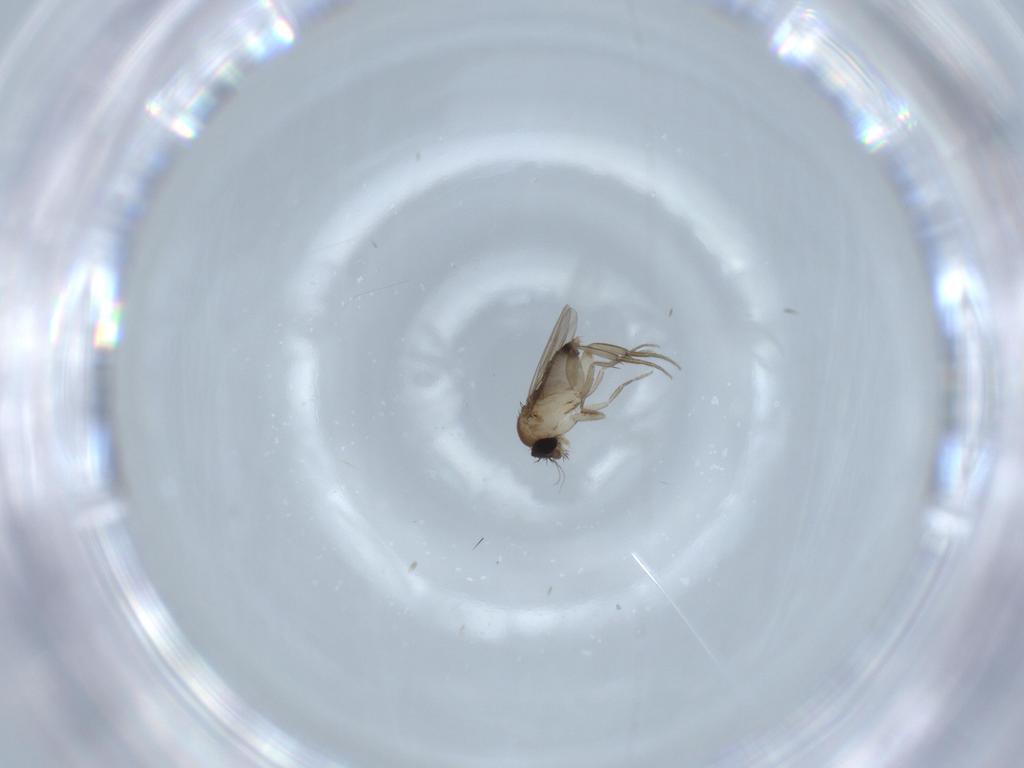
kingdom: Animalia
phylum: Arthropoda
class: Insecta
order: Diptera
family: Phoridae
